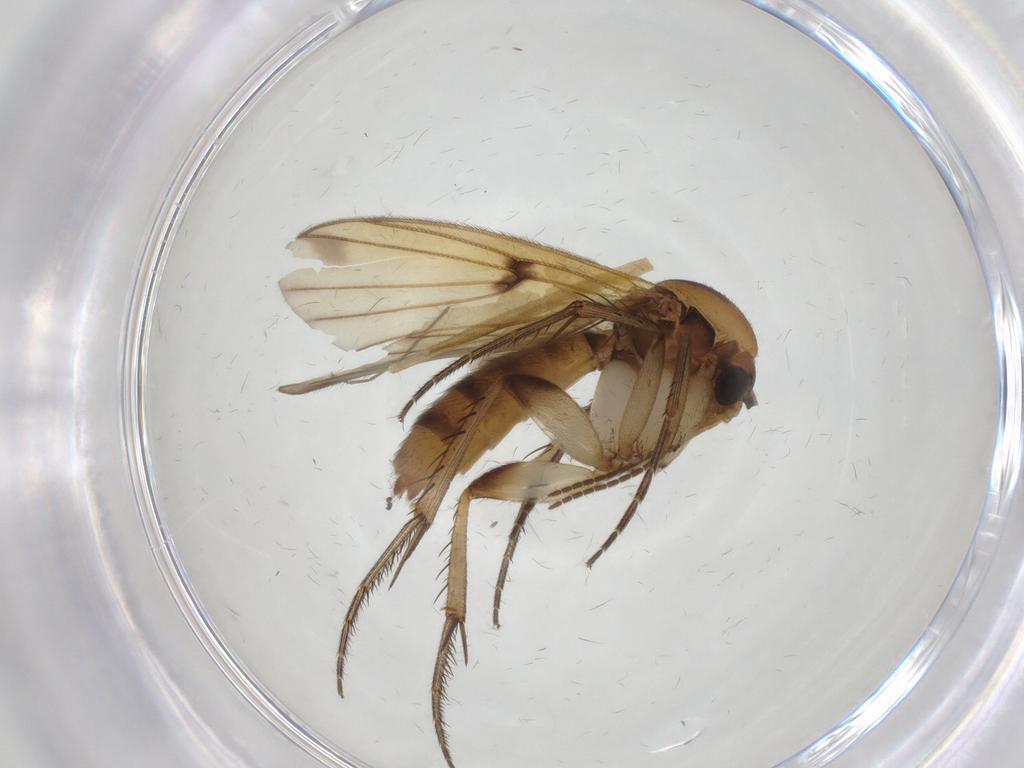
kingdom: Animalia
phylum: Arthropoda
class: Insecta
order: Diptera
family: Mycetophilidae
